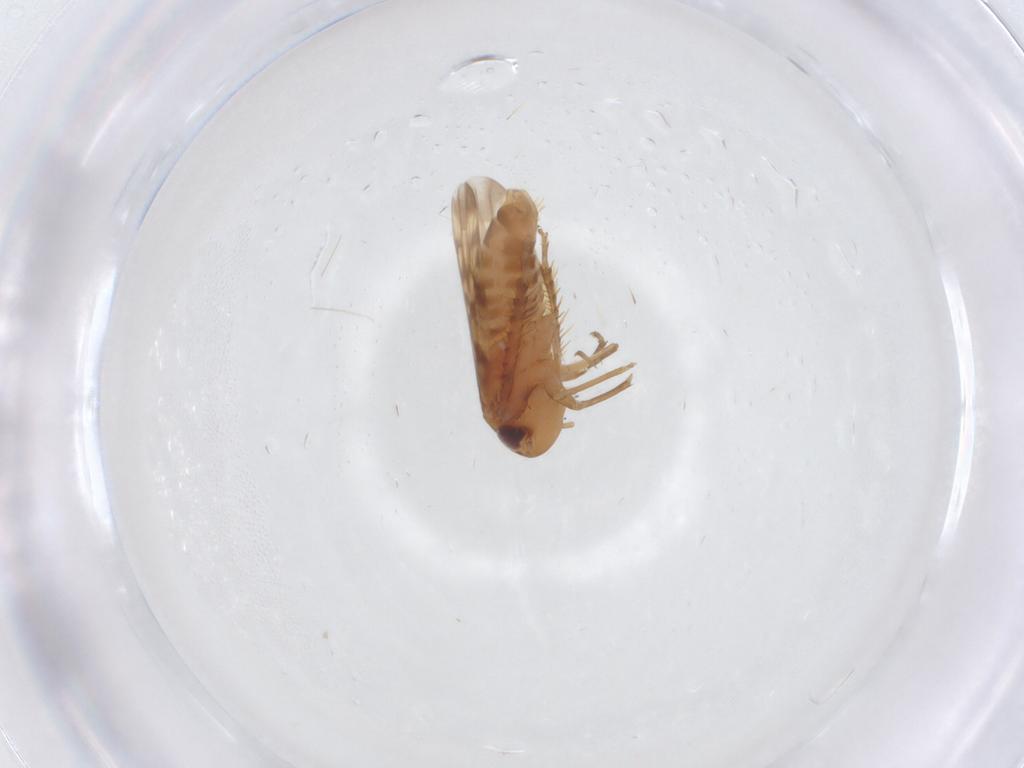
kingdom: Animalia
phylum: Arthropoda
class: Insecta
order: Hemiptera
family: Cicadellidae
